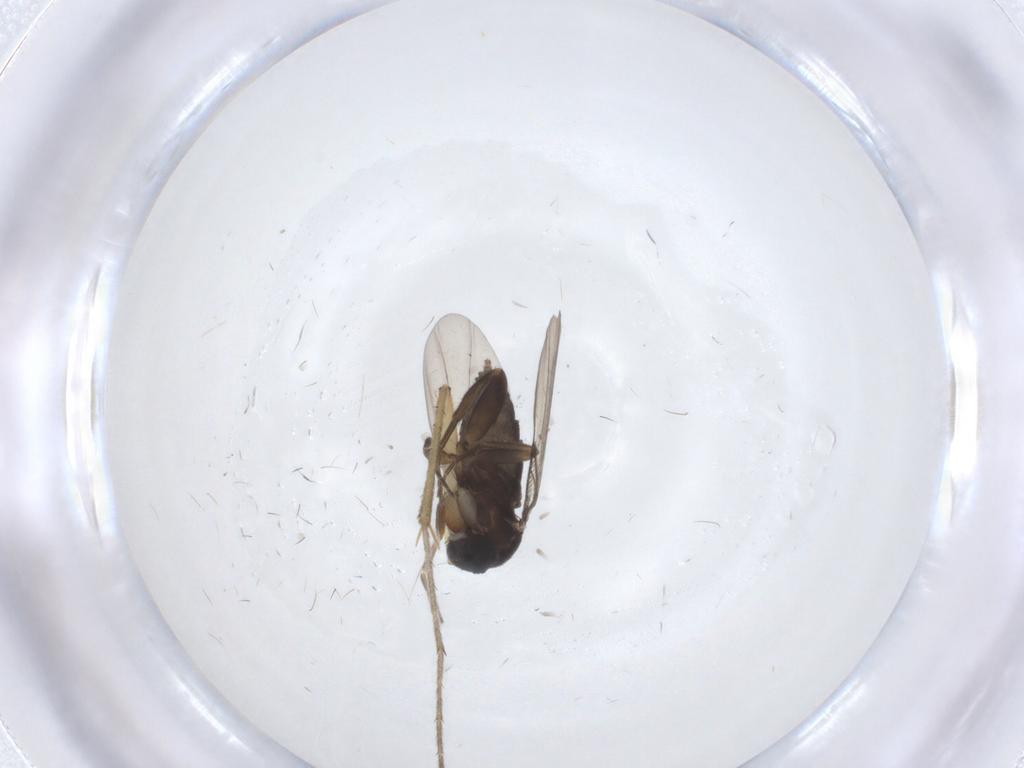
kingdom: Animalia
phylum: Arthropoda
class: Insecta
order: Diptera
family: Phoridae
